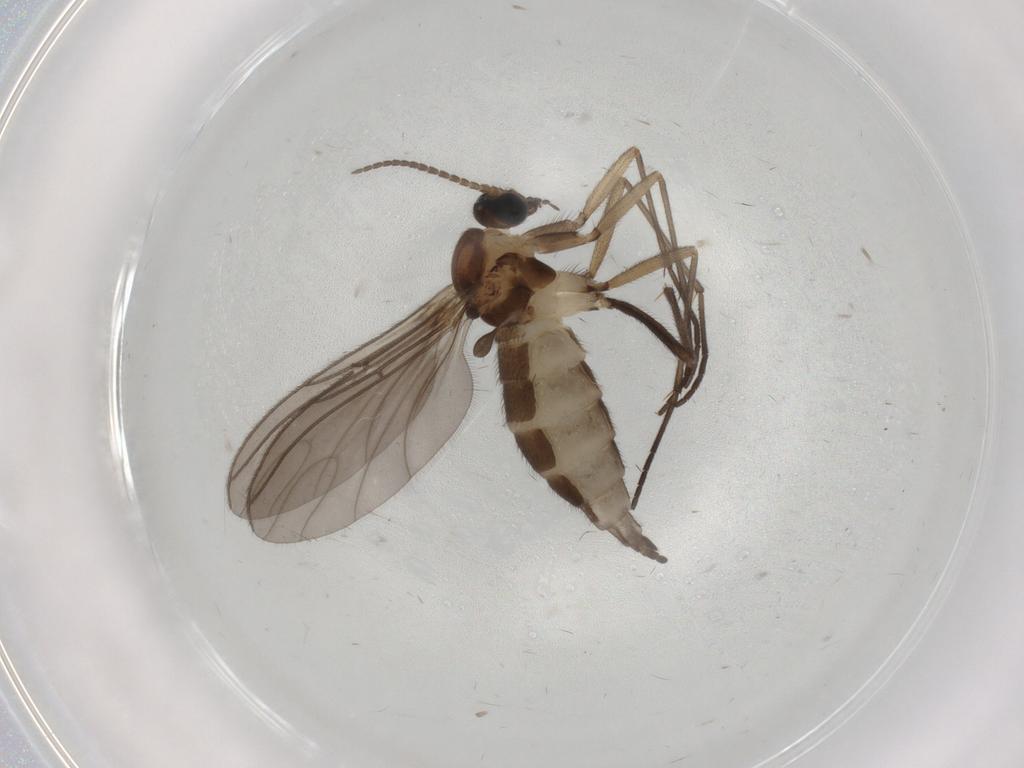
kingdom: Animalia
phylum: Arthropoda
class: Insecta
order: Diptera
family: Sciaridae
